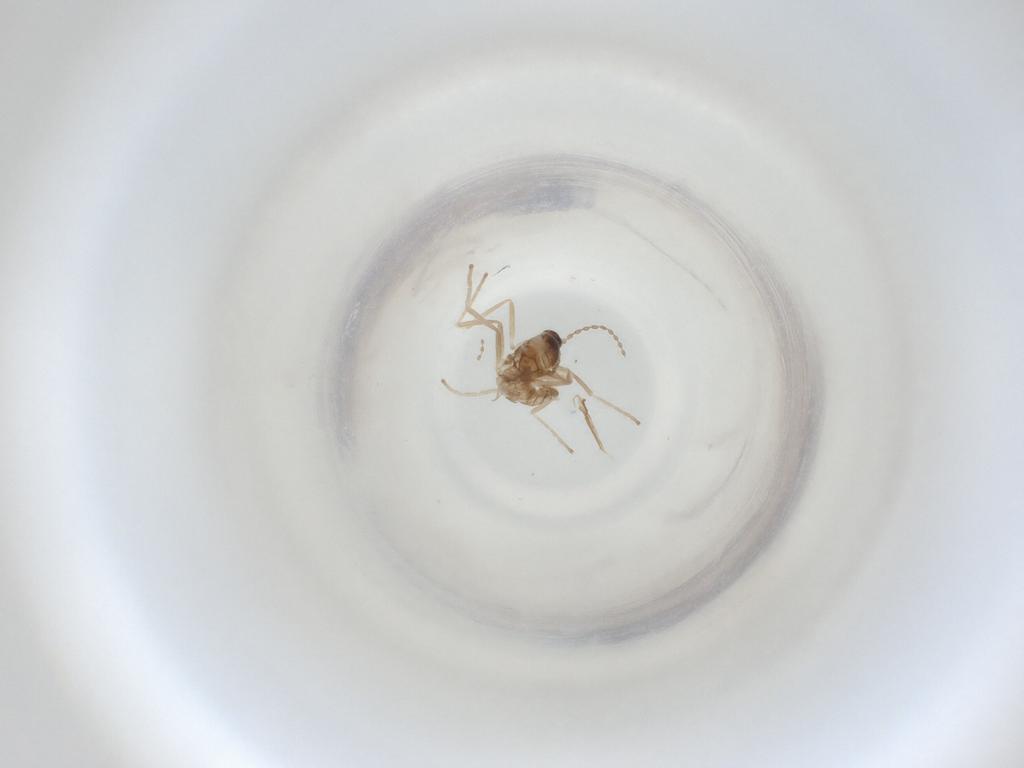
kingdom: Animalia
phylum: Arthropoda
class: Insecta
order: Diptera
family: Cecidomyiidae
